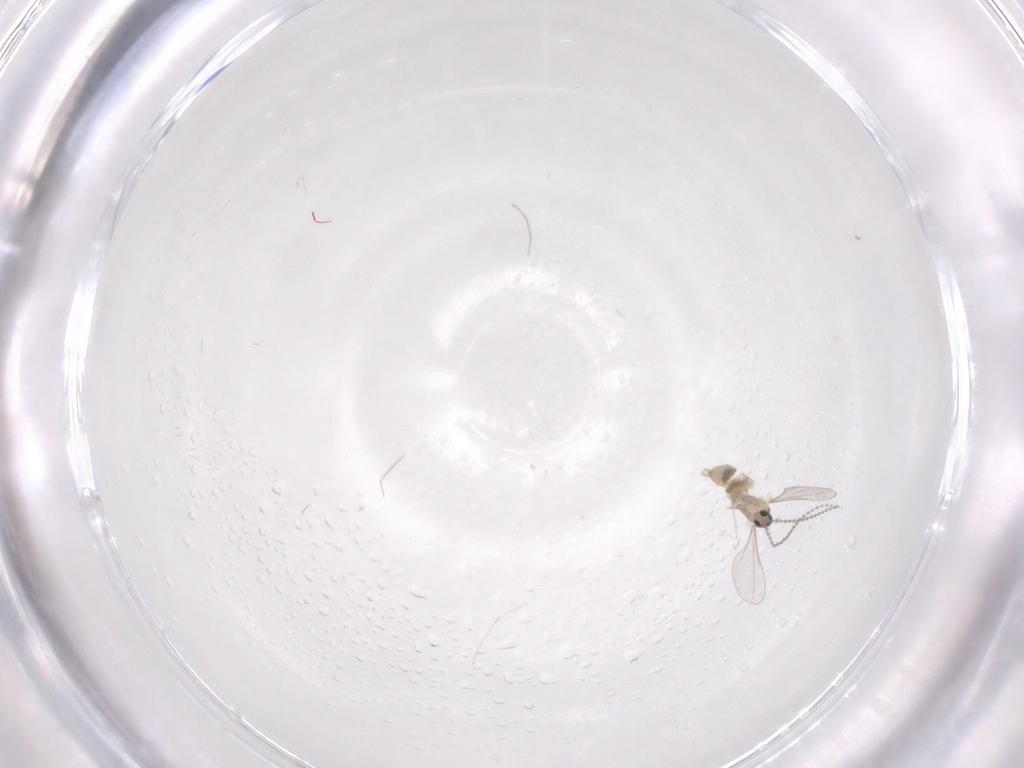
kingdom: Animalia
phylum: Arthropoda
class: Insecta
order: Diptera
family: Cecidomyiidae
